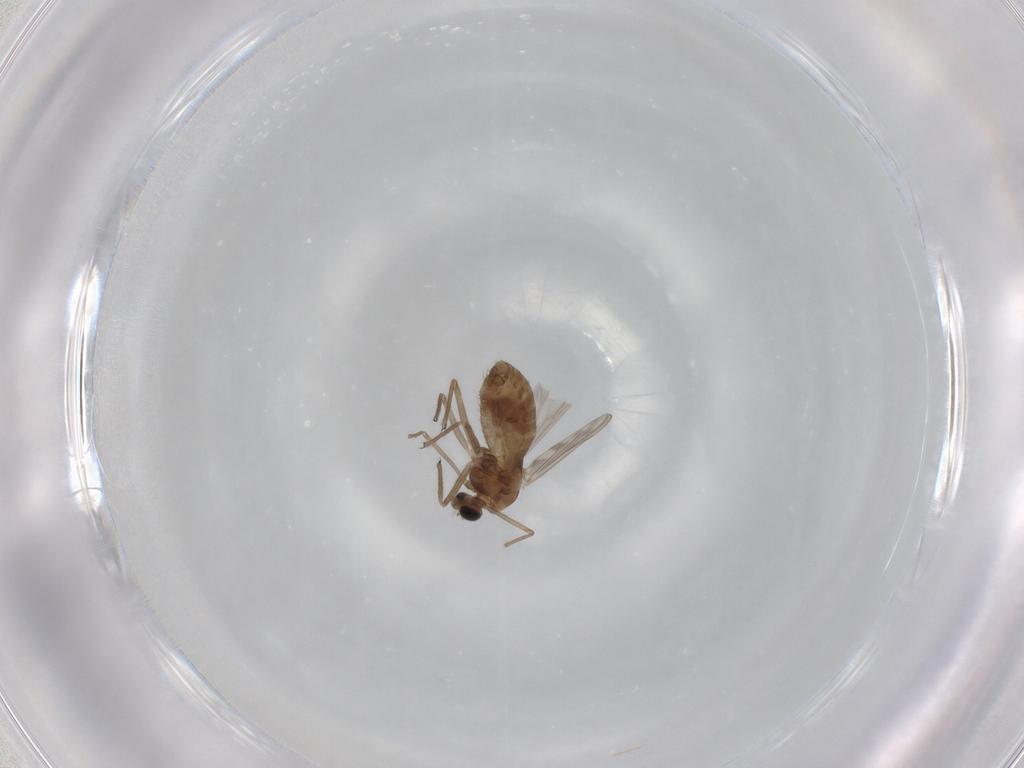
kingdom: Animalia
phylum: Arthropoda
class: Insecta
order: Diptera
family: Chironomidae
